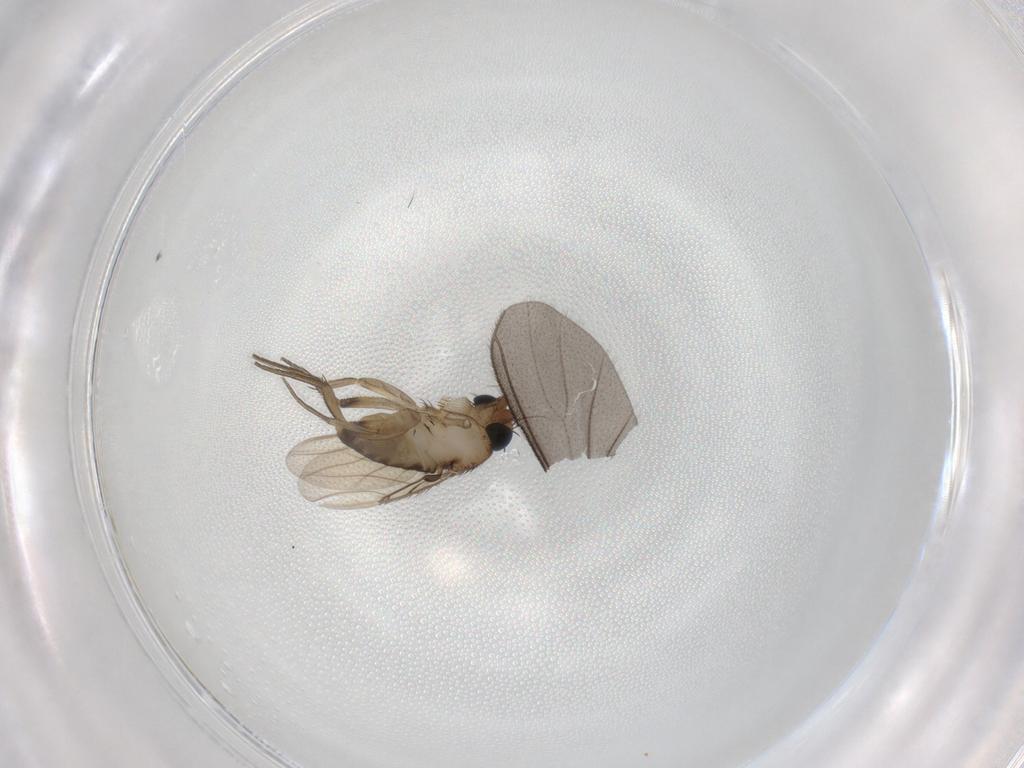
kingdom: Animalia
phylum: Arthropoda
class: Insecta
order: Diptera
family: Phoridae
